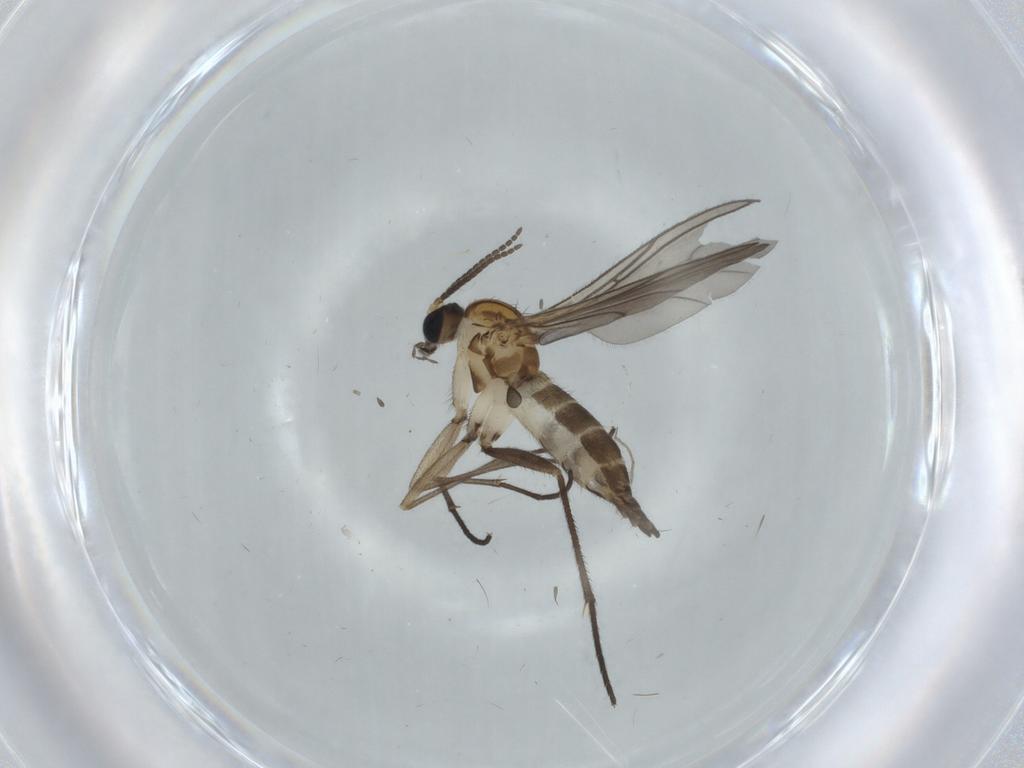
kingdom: Animalia
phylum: Arthropoda
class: Insecta
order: Diptera
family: Sciaridae
